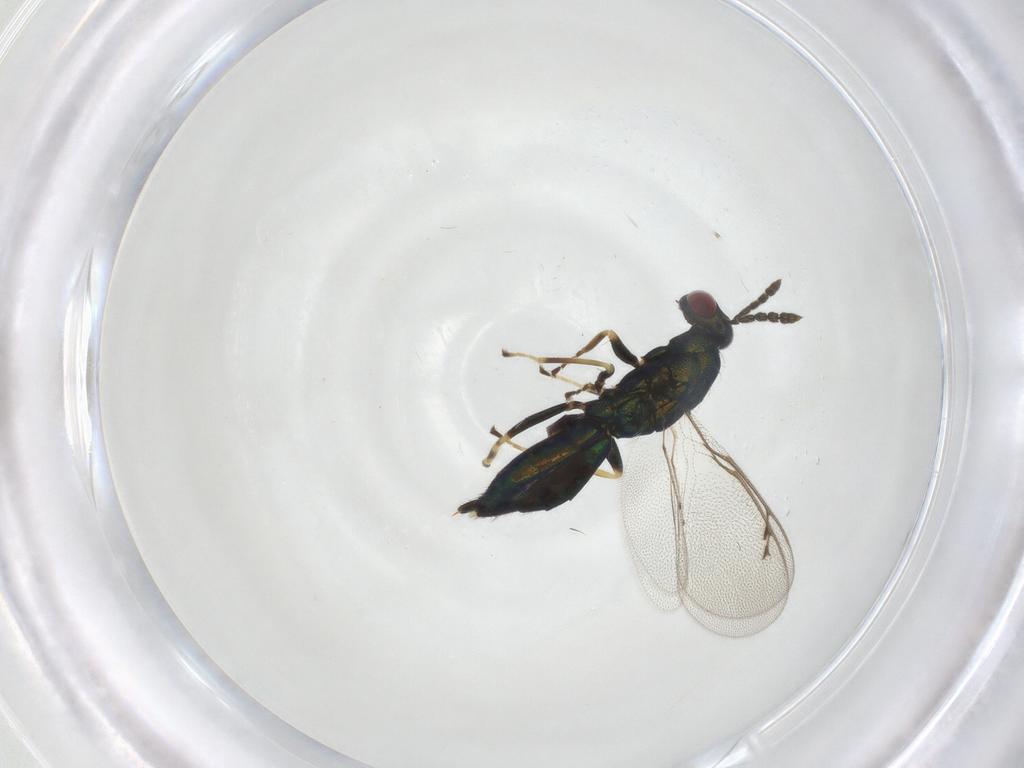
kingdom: Animalia
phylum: Arthropoda
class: Insecta
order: Hymenoptera
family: Eulophidae
